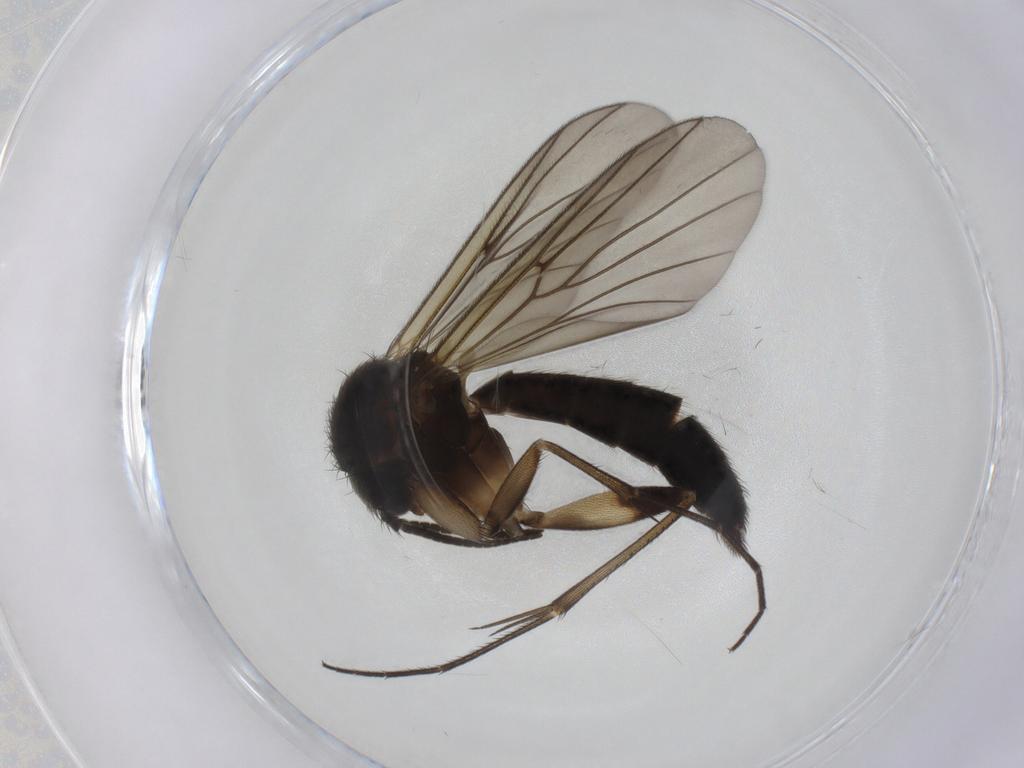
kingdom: Animalia
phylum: Arthropoda
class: Insecta
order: Diptera
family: Mycetophilidae
